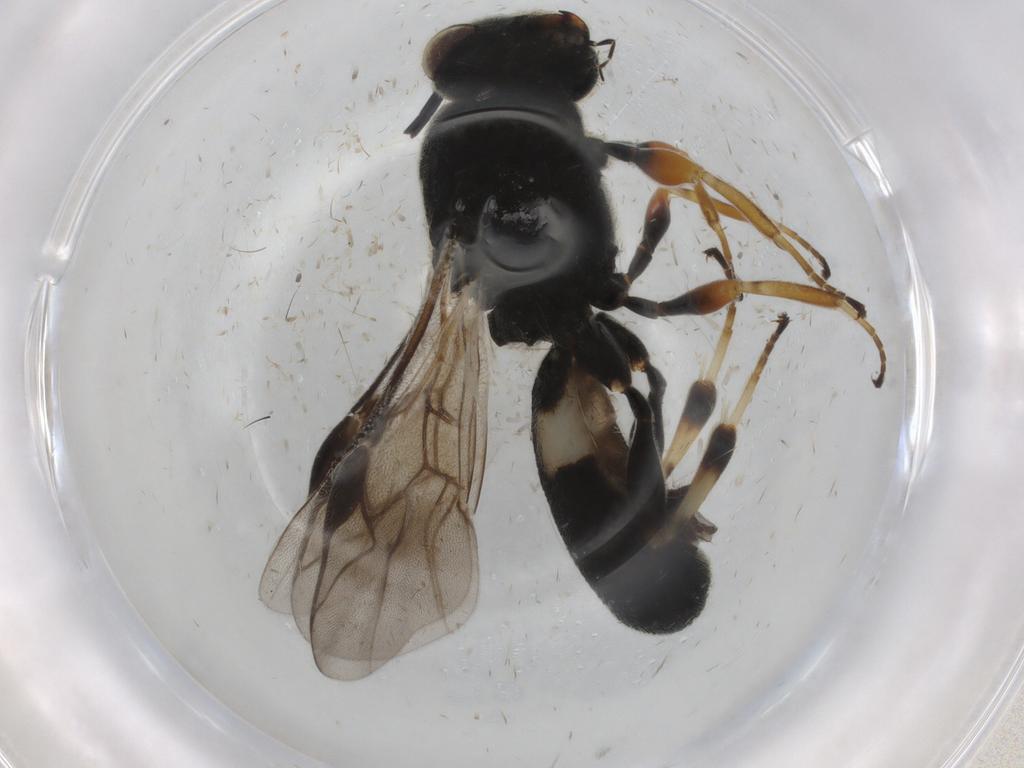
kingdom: Animalia
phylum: Arthropoda
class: Insecta
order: Hymenoptera
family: Braconidae
